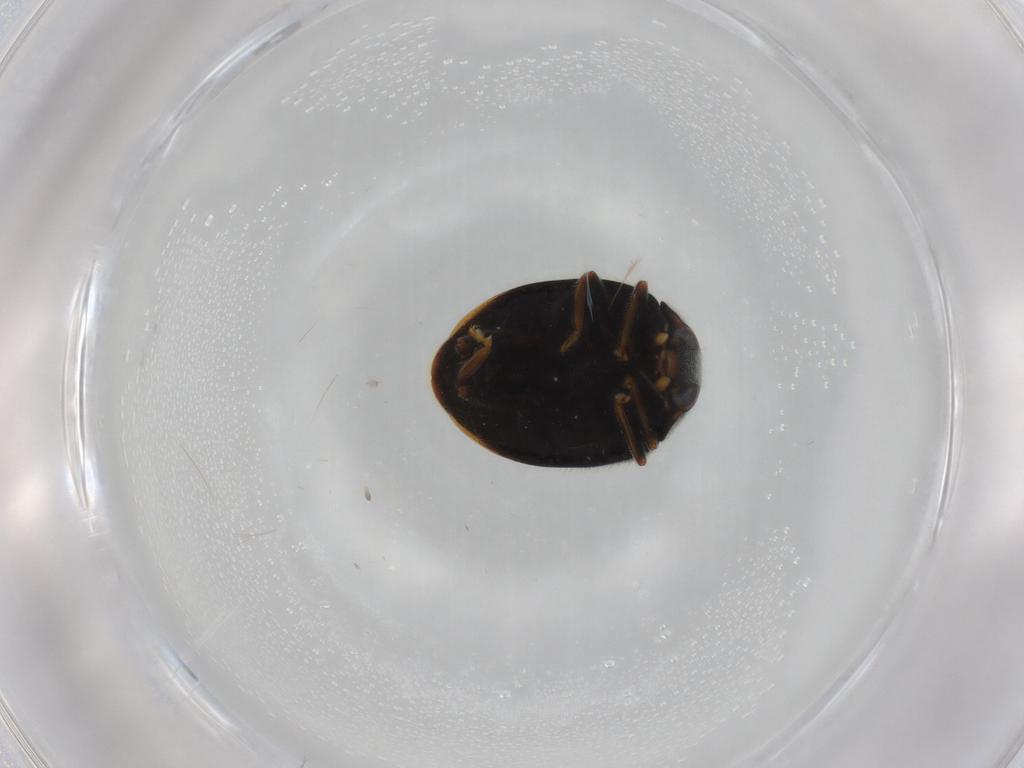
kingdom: Animalia
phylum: Arthropoda
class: Insecta
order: Coleoptera
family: Coccinellidae
